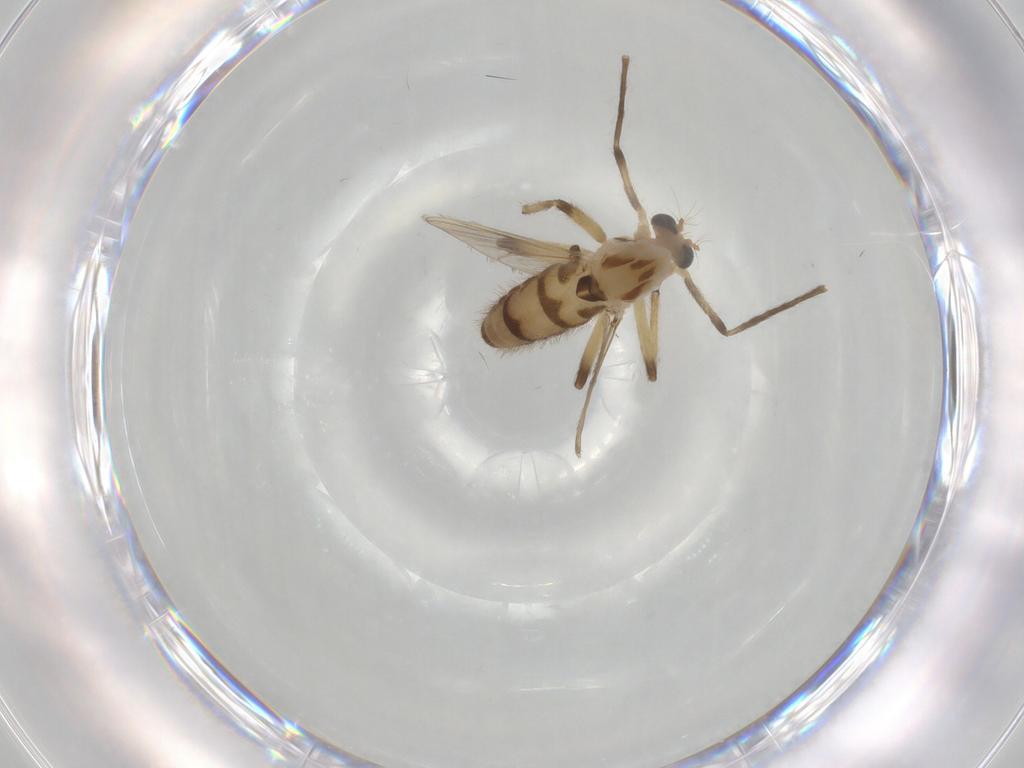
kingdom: Animalia
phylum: Arthropoda
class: Insecta
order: Diptera
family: Chironomidae
